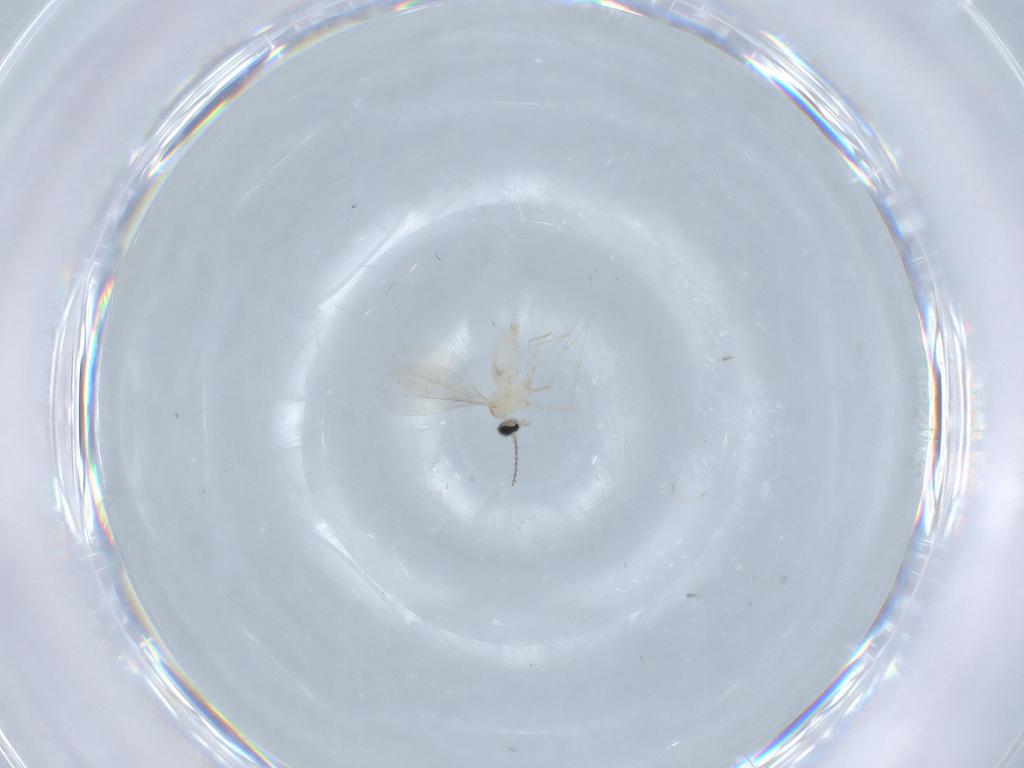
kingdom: Animalia
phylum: Arthropoda
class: Insecta
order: Diptera
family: Cecidomyiidae
